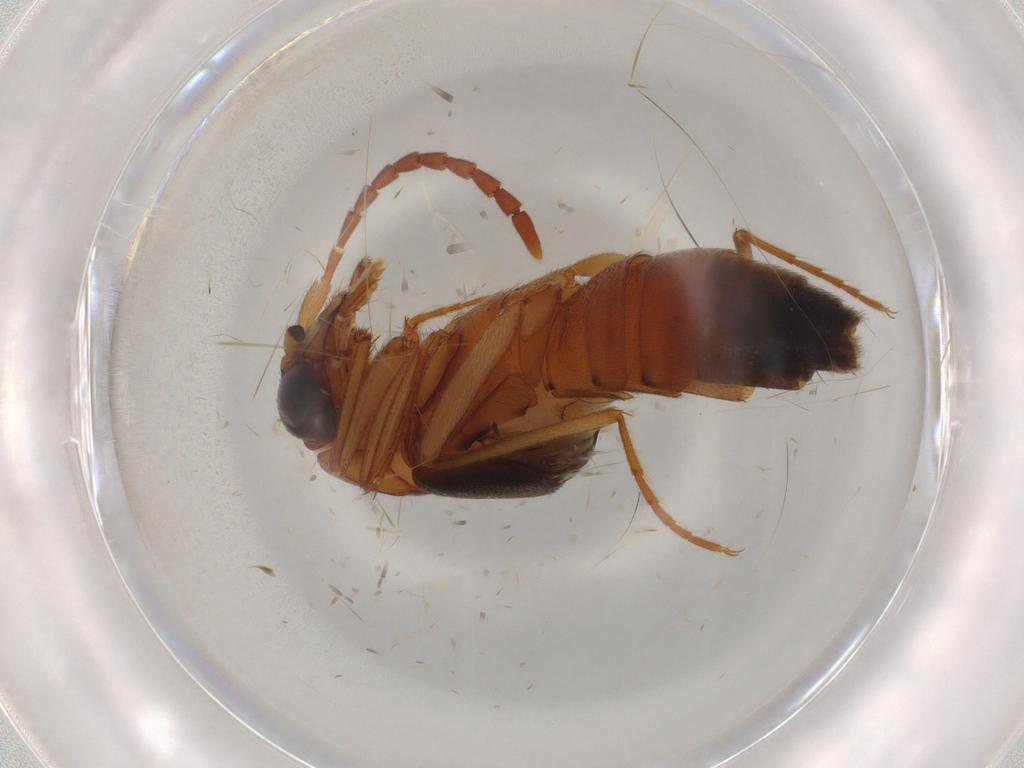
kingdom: Animalia
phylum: Arthropoda
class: Insecta
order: Coleoptera
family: Staphylinidae
